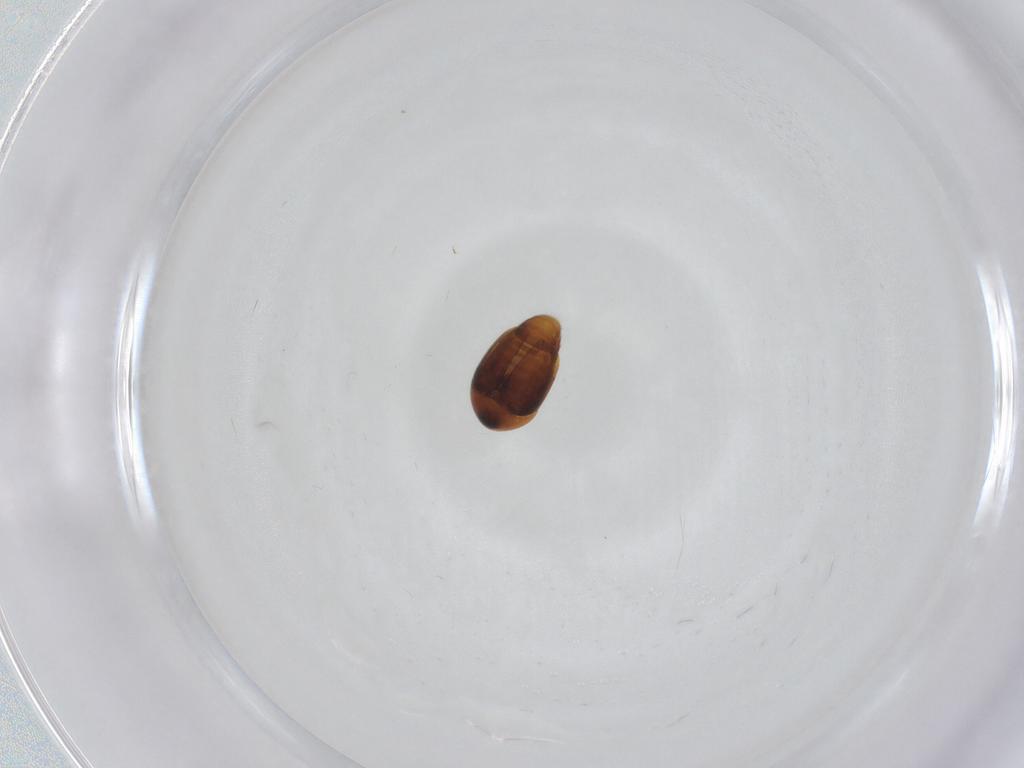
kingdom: Animalia
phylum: Arthropoda
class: Insecta
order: Coleoptera
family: Corylophidae
